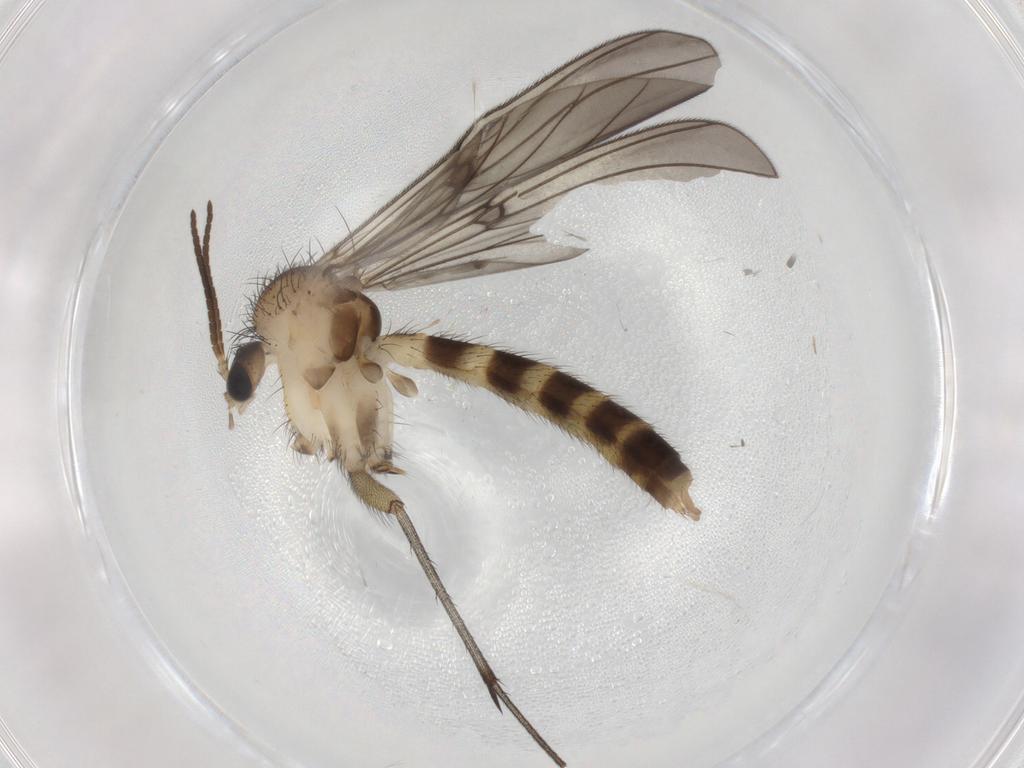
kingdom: Animalia
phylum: Arthropoda
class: Insecta
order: Diptera
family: Mycetophilidae
